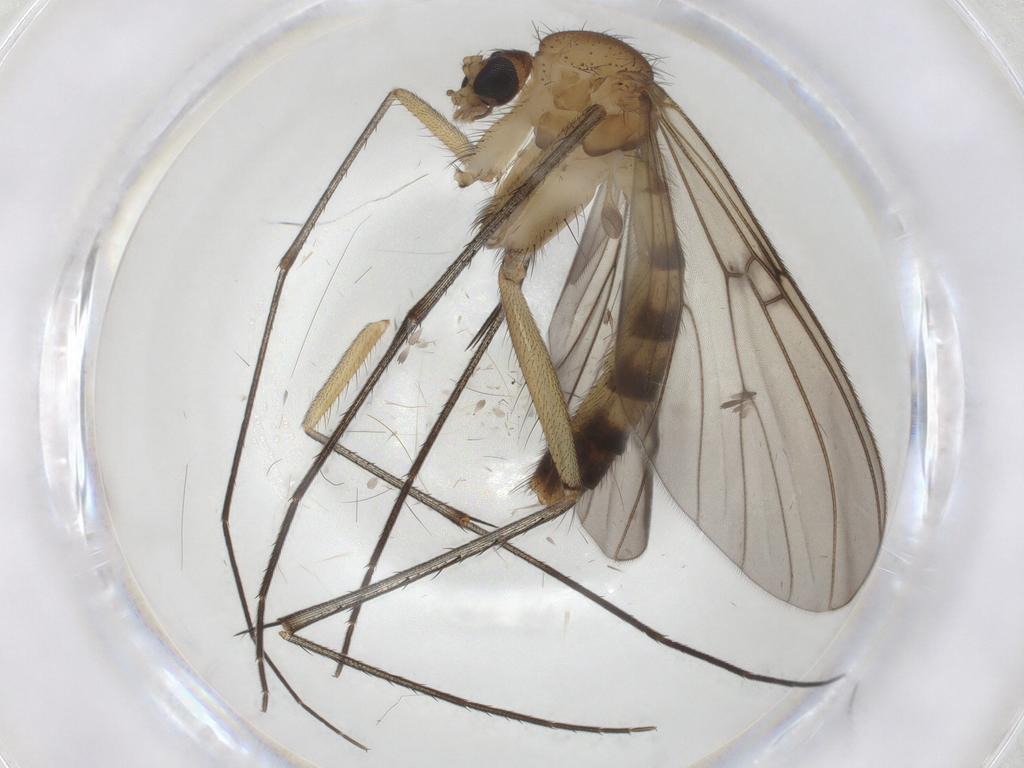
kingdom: Animalia
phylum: Arthropoda
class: Insecta
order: Diptera
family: Mycetophilidae
